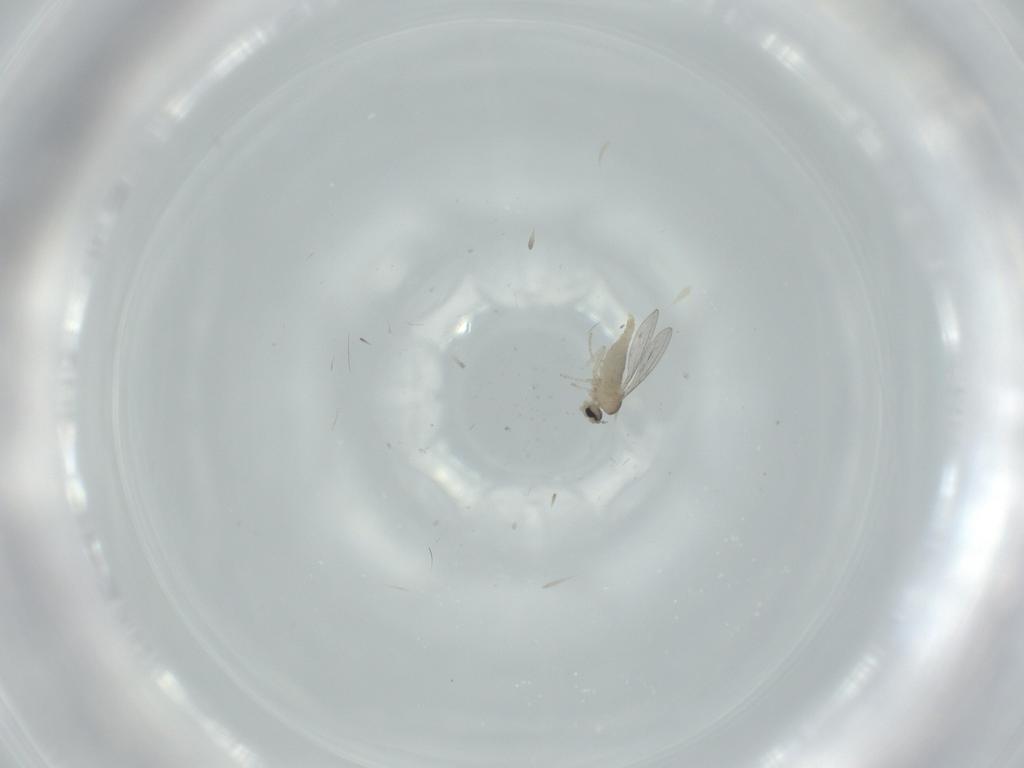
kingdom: Animalia
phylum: Arthropoda
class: Insecta
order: Diptera
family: Cecidomyiidae
